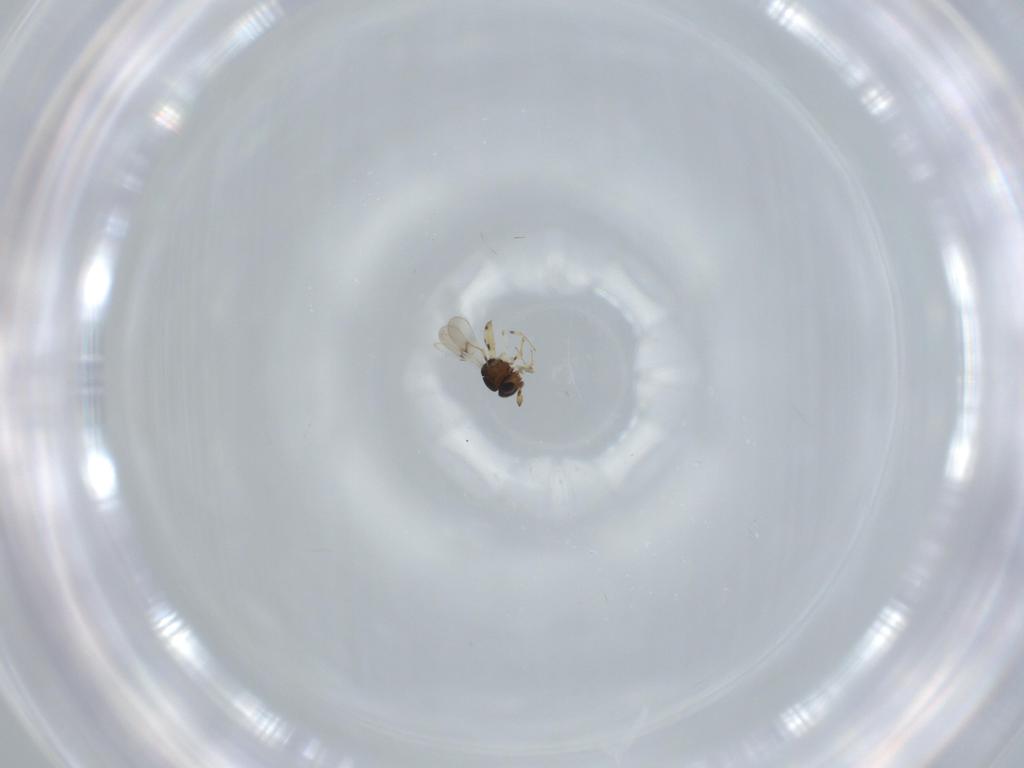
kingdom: Animalia
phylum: Arthropoda
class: Insecta
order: Hymenoptera
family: Scelionidae
